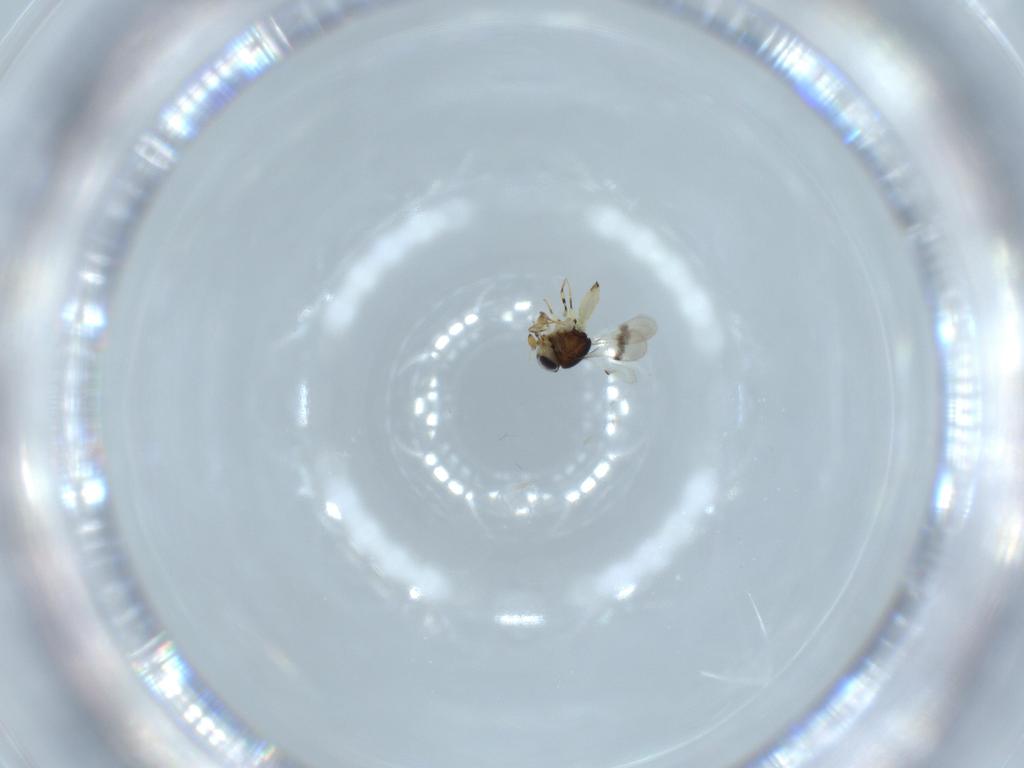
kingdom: Animalia
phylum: Arthropoda
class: Insecta
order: Hymenoptera
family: Scelionidae
